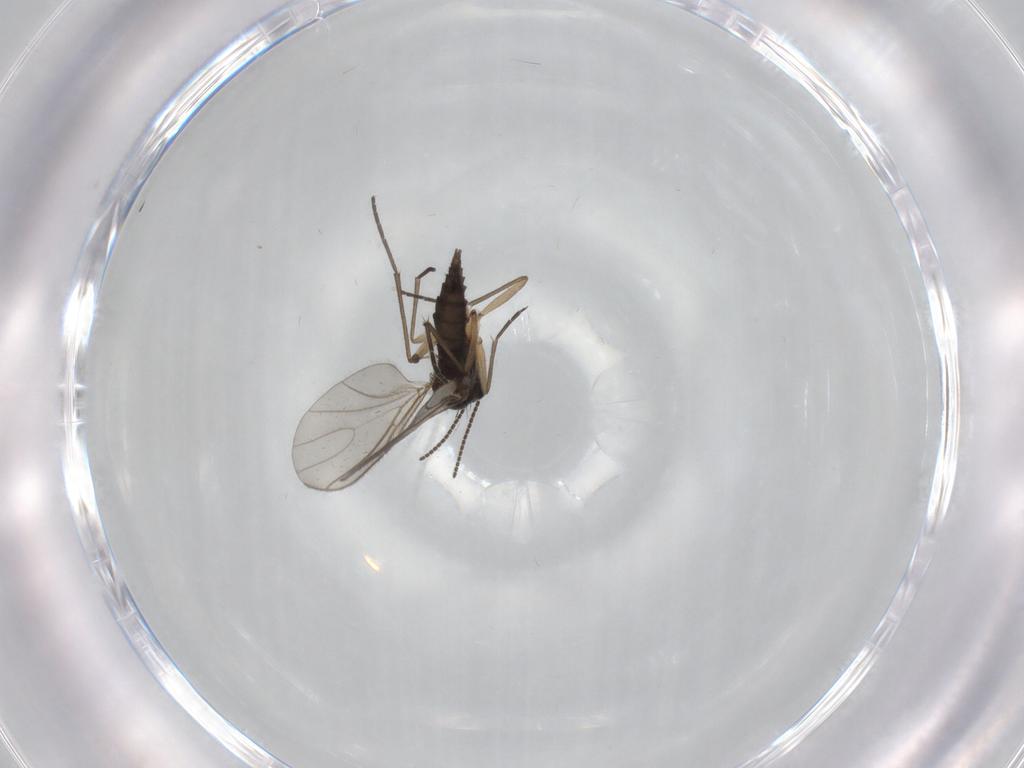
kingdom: Animalia
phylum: Arthropoda
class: Insecta
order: Diptera
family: Sciaridae
